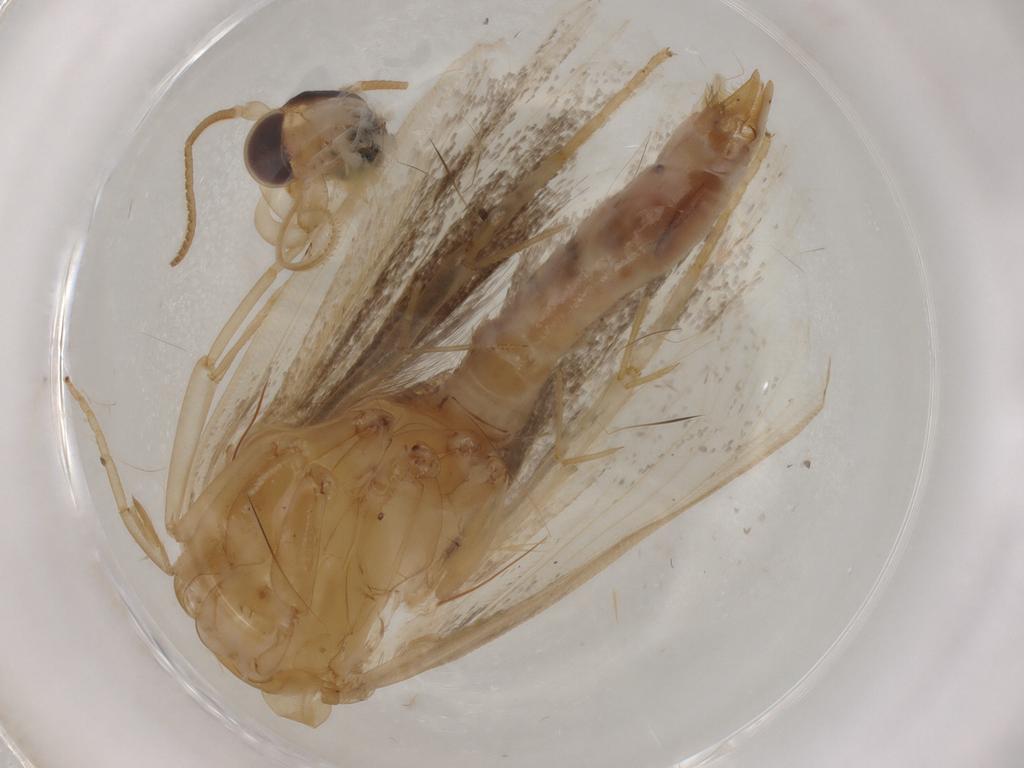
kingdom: Animalia
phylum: Arthropoda
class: Insecta
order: Lepidoptera
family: Immidae
